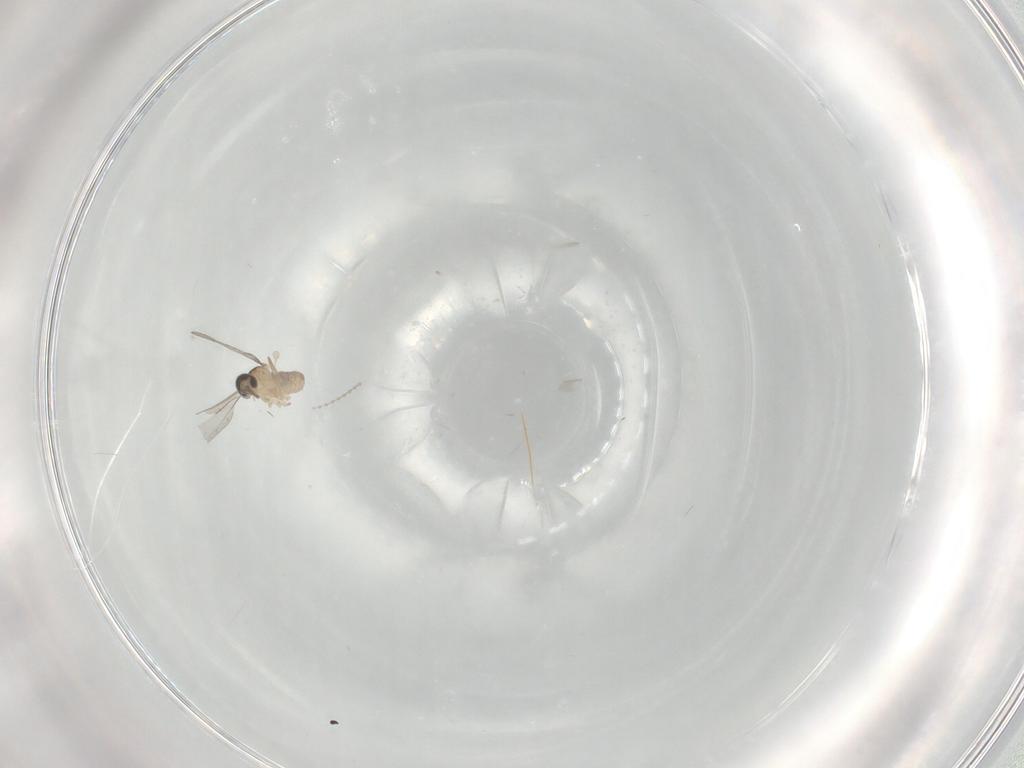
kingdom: Animalia
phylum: Arthropoda
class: Insecta
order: Diptera
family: Cecidomyiidae
